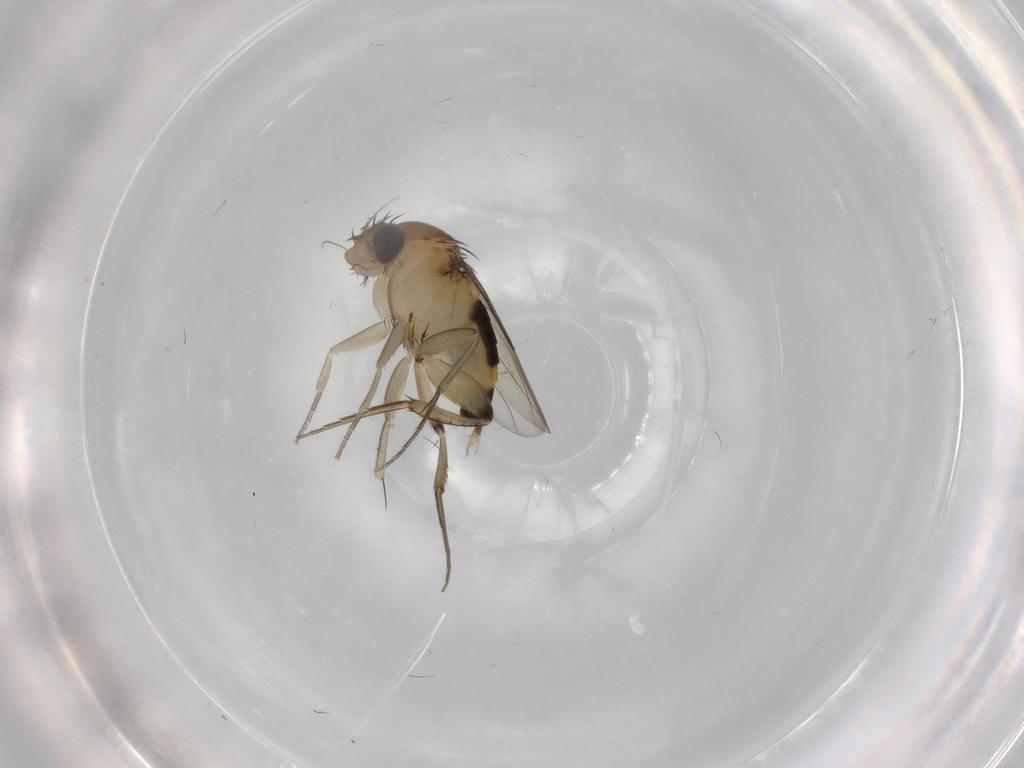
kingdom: Animalia
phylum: Arthropoda
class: Insecta
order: Diptera
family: Phoridae
